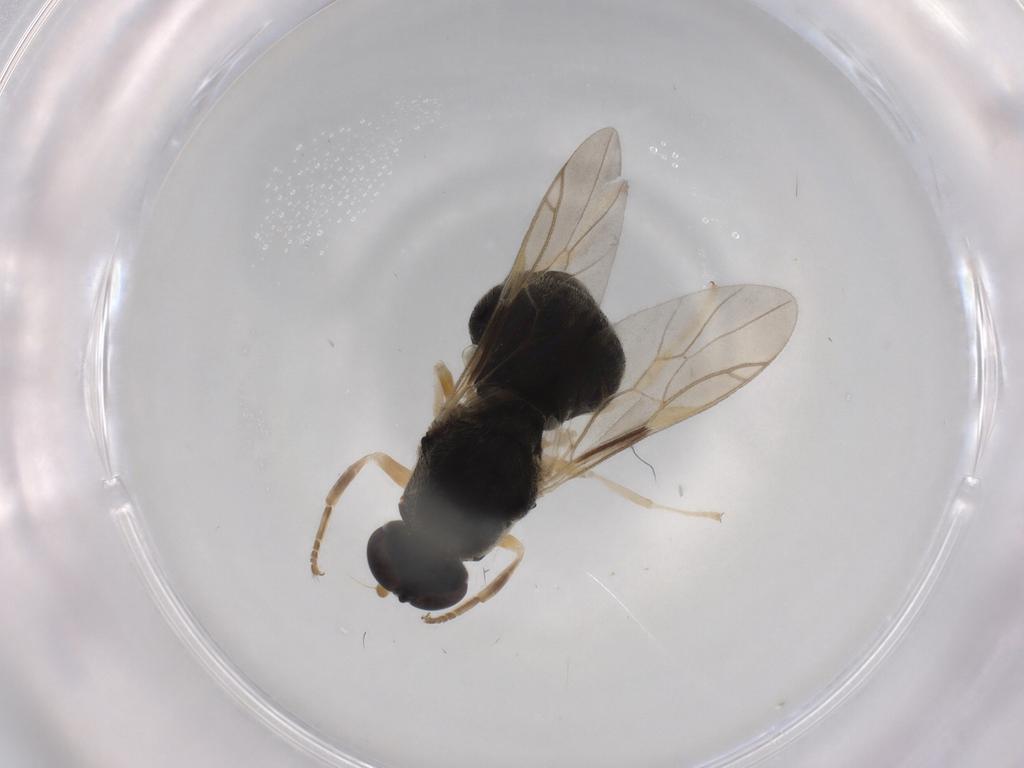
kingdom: Animalia
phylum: Arthropoda
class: Insecta
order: Diptera
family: Stratiomyidae
